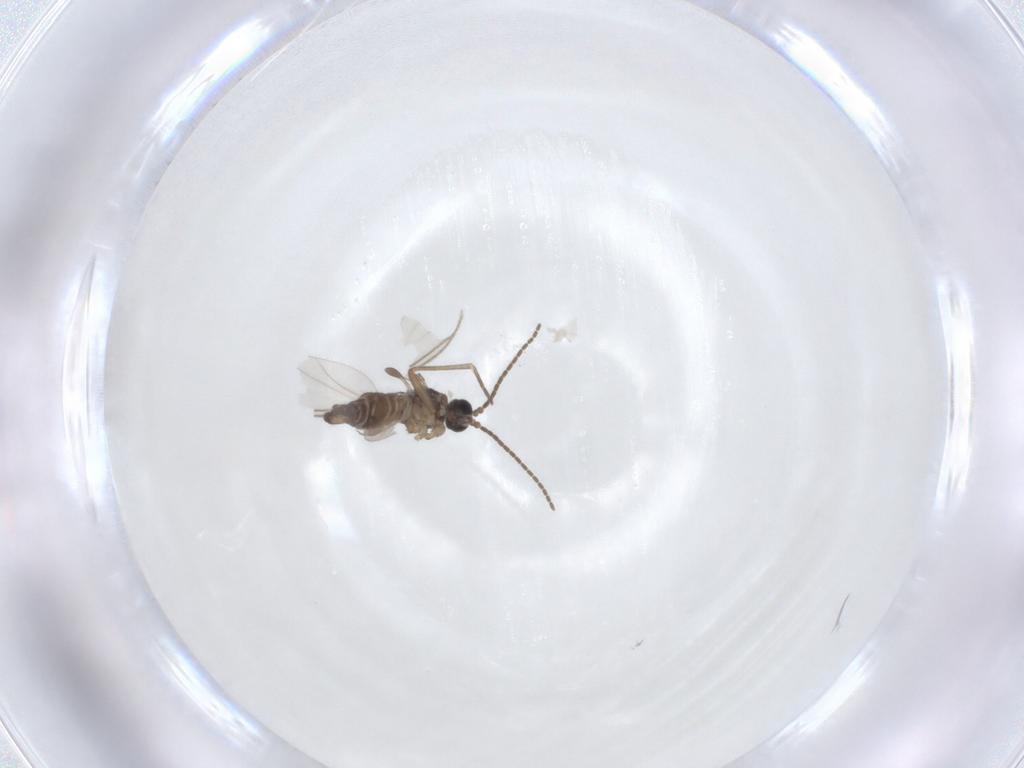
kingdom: Animalia
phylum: Arthropoda
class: Insecta
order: Diptera
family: Sciaridae
